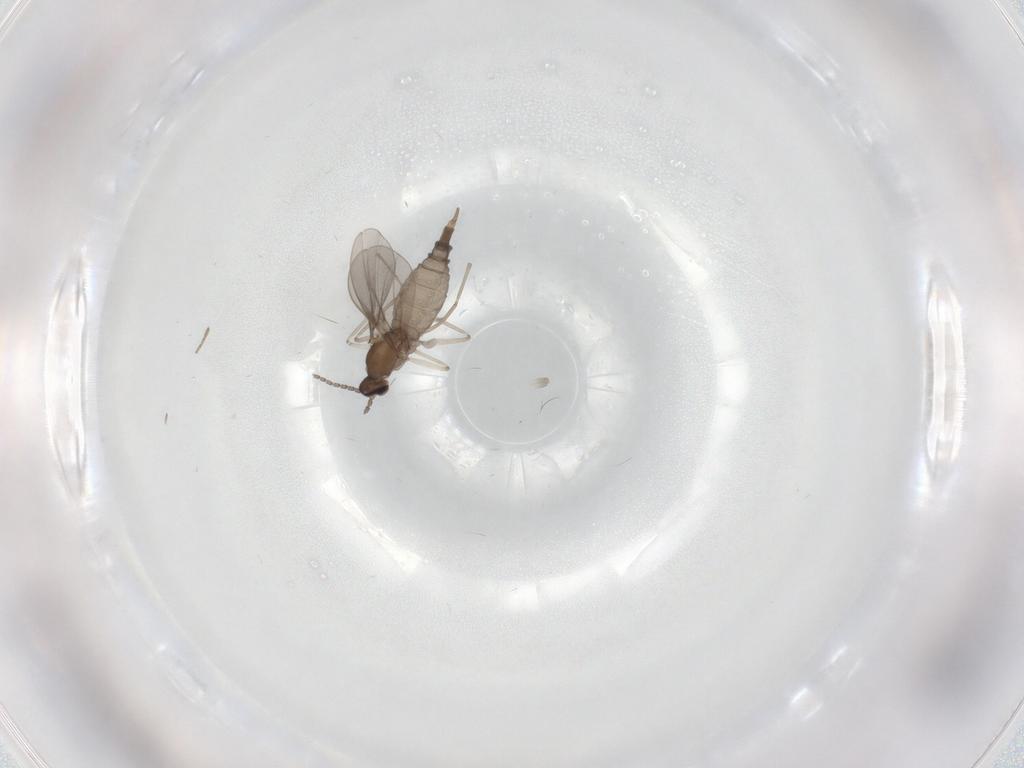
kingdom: Animalia
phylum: Arthropoda
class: Insecta
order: Diptera
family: Cecidomyiidae
